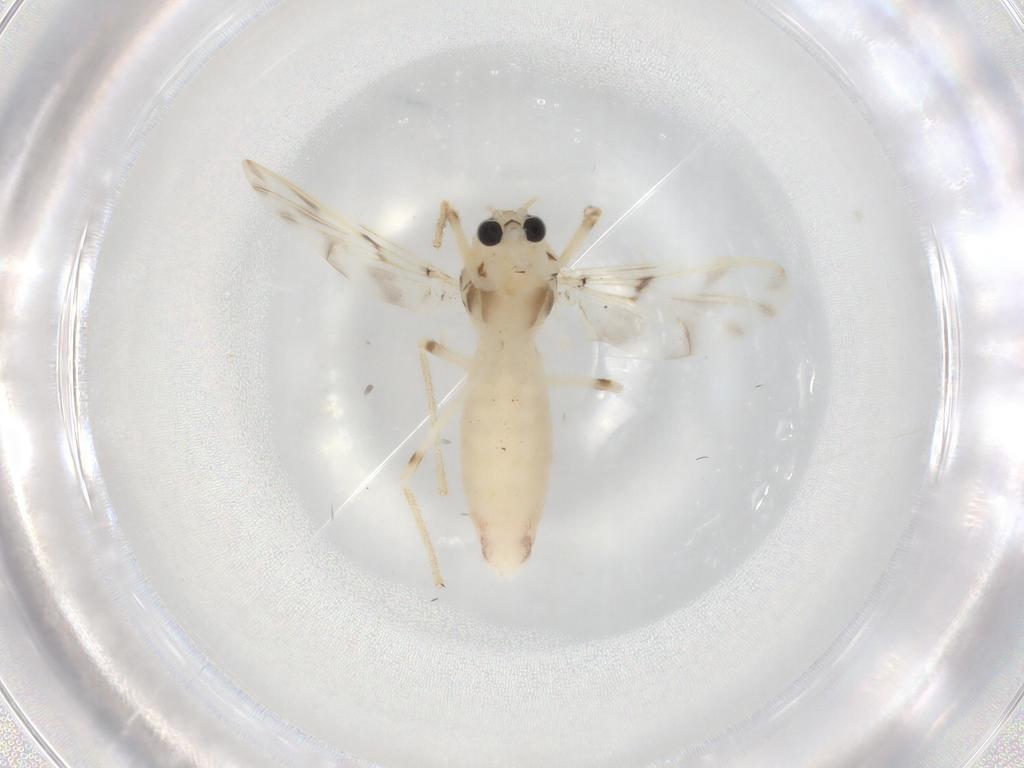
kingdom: Animalia
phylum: Arthropoda
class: Insecta
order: Diptera
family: Chironomidae
